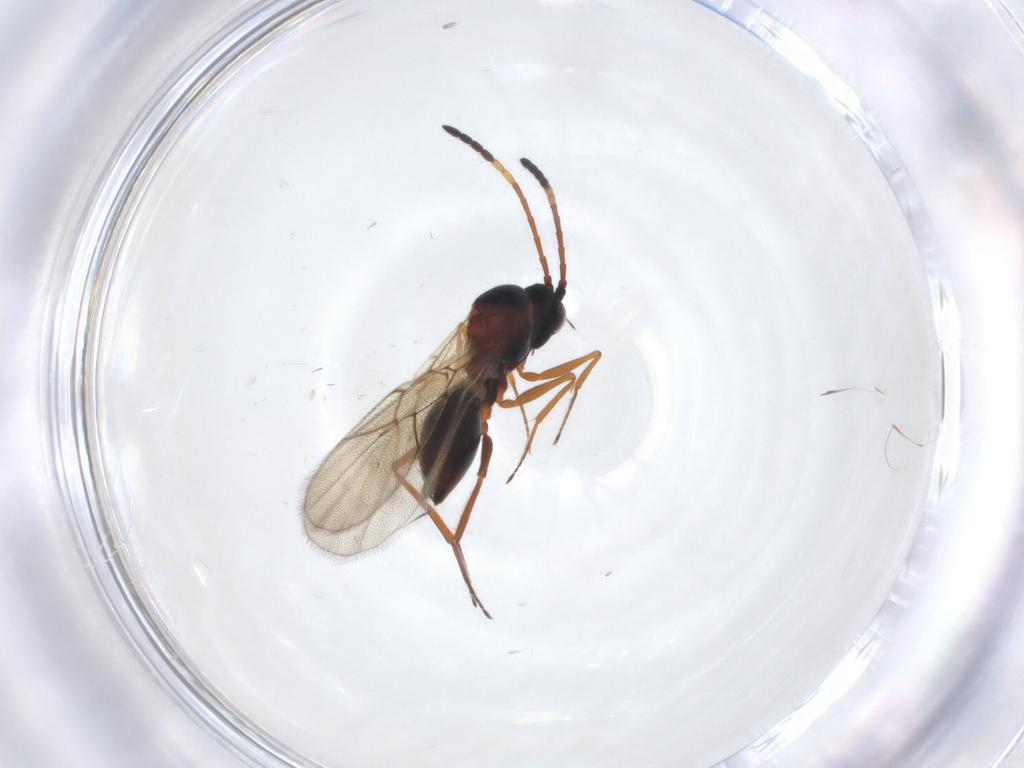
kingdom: Animalia
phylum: Arthropoda
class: Insecta
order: Hymenoptera
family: Figitidae
